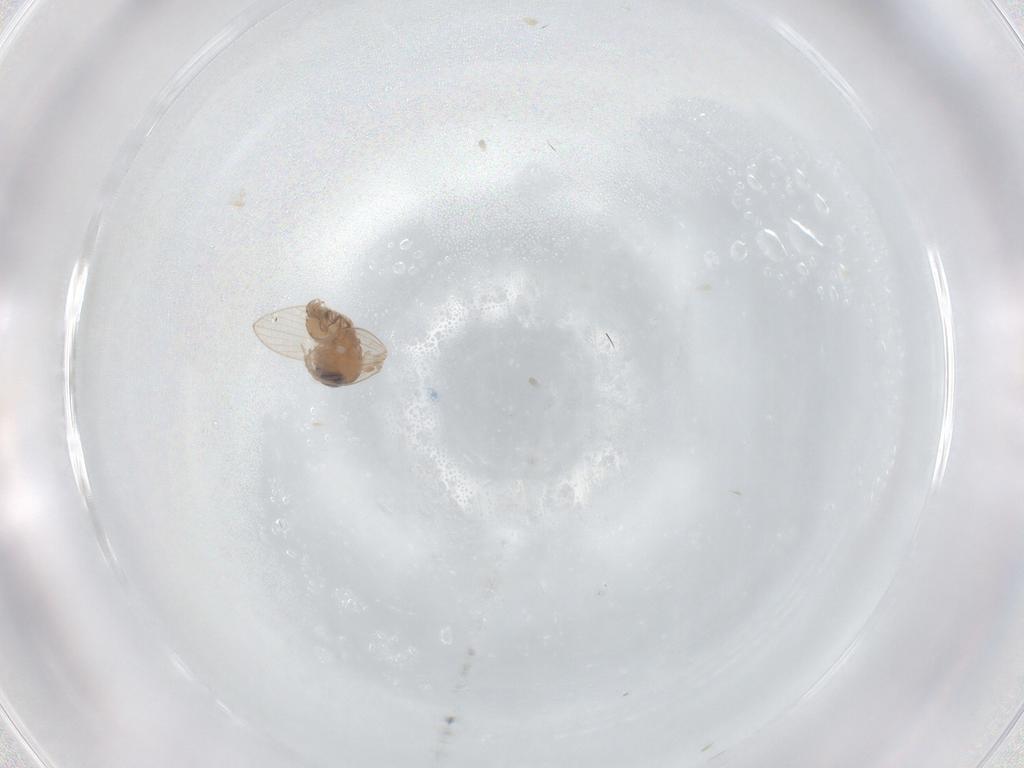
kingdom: Animalia
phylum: Arthropoda
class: Insecta
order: Diptera
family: Psychodidae
